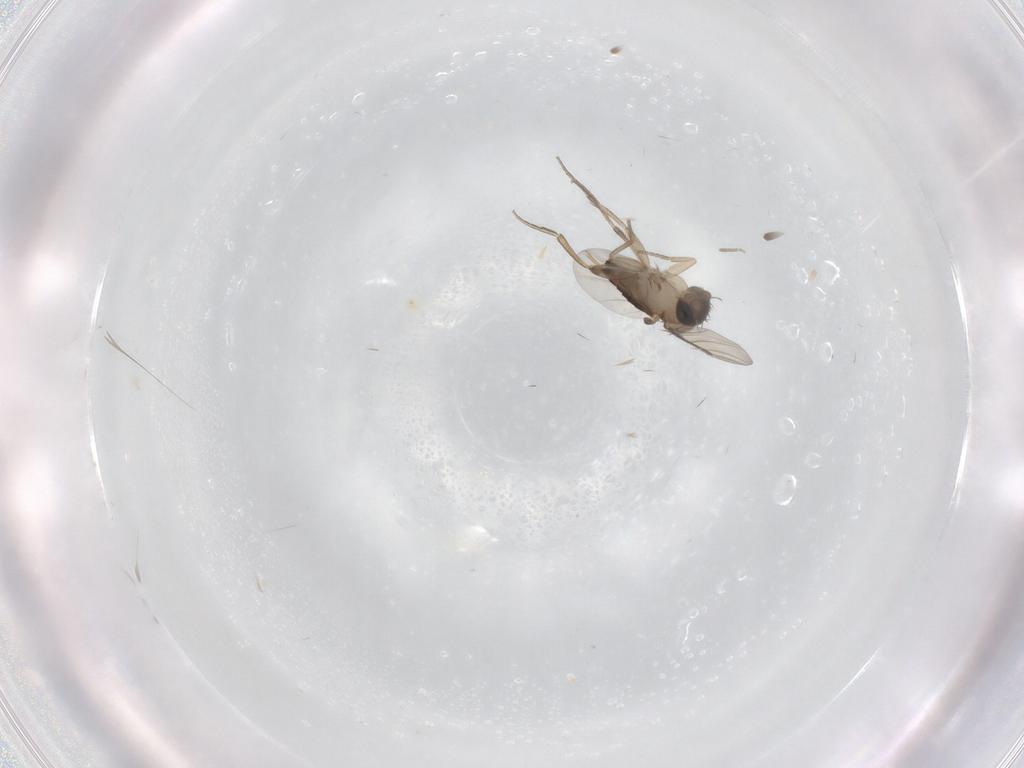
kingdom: Animalia
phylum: Arthropoda
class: Insecta
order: Diptera
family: Phoridae
